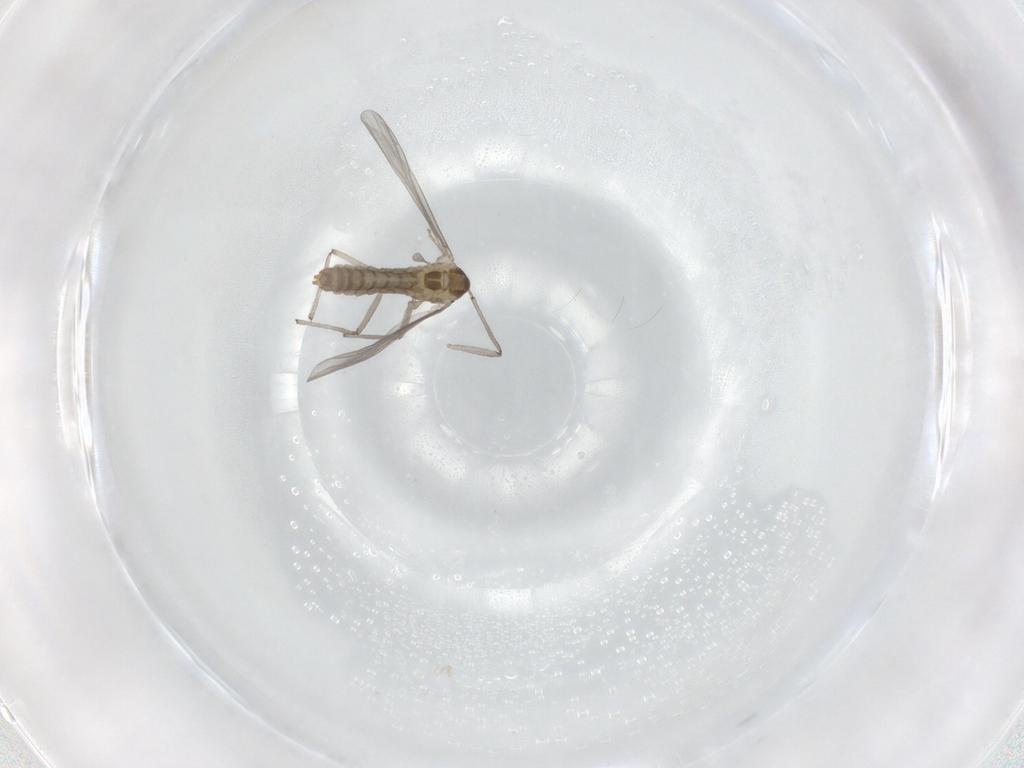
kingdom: Animalia
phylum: Arthropoda
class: Insecta
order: Diptera
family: Chironomidae
